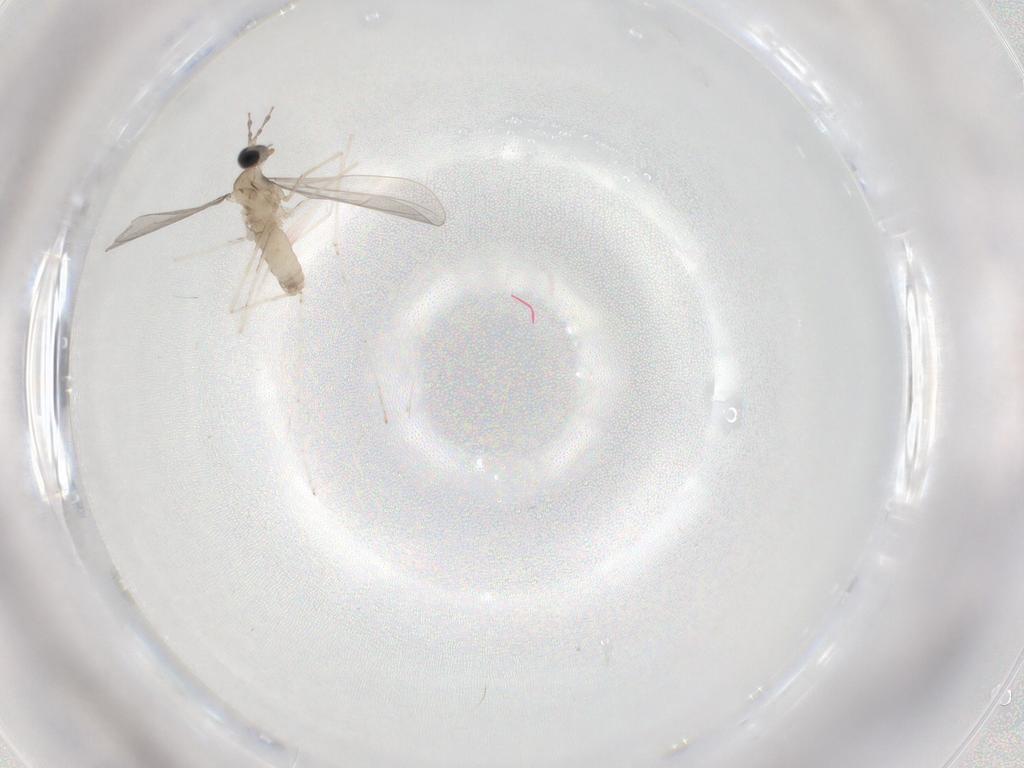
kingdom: Animalia
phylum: Arthropoda
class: Insecta
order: Diptera
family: Cecidomyiidae
